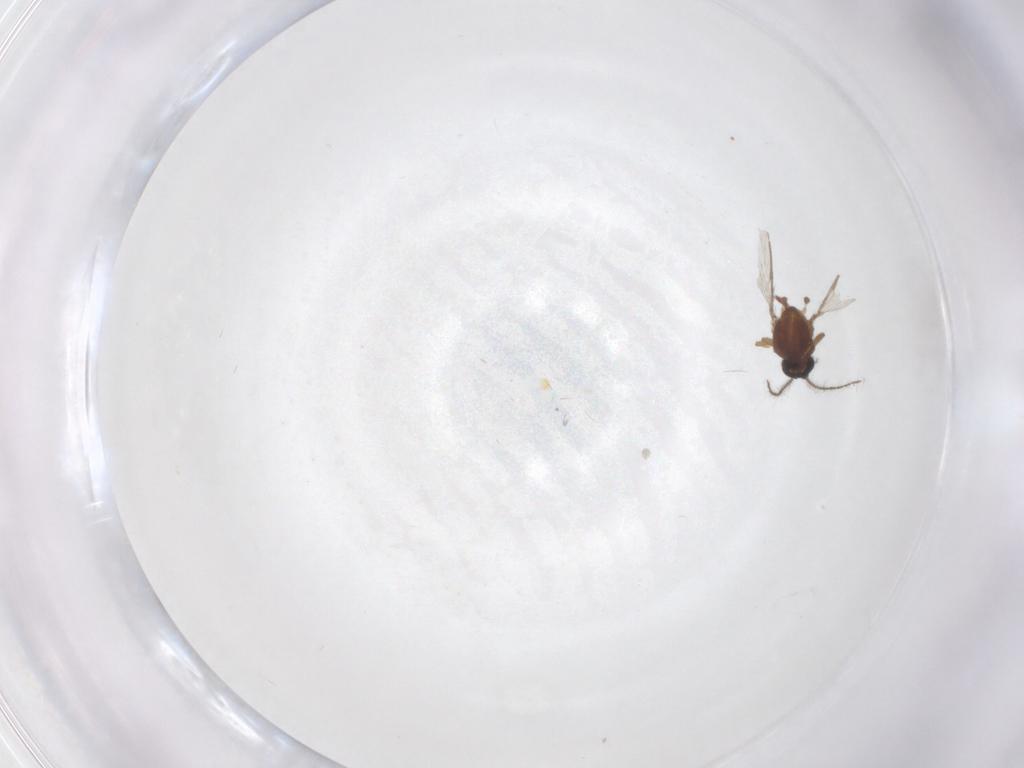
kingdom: Animalia
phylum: Arthropoda
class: Insecta
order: Diptera
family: Ceratopogonidae
